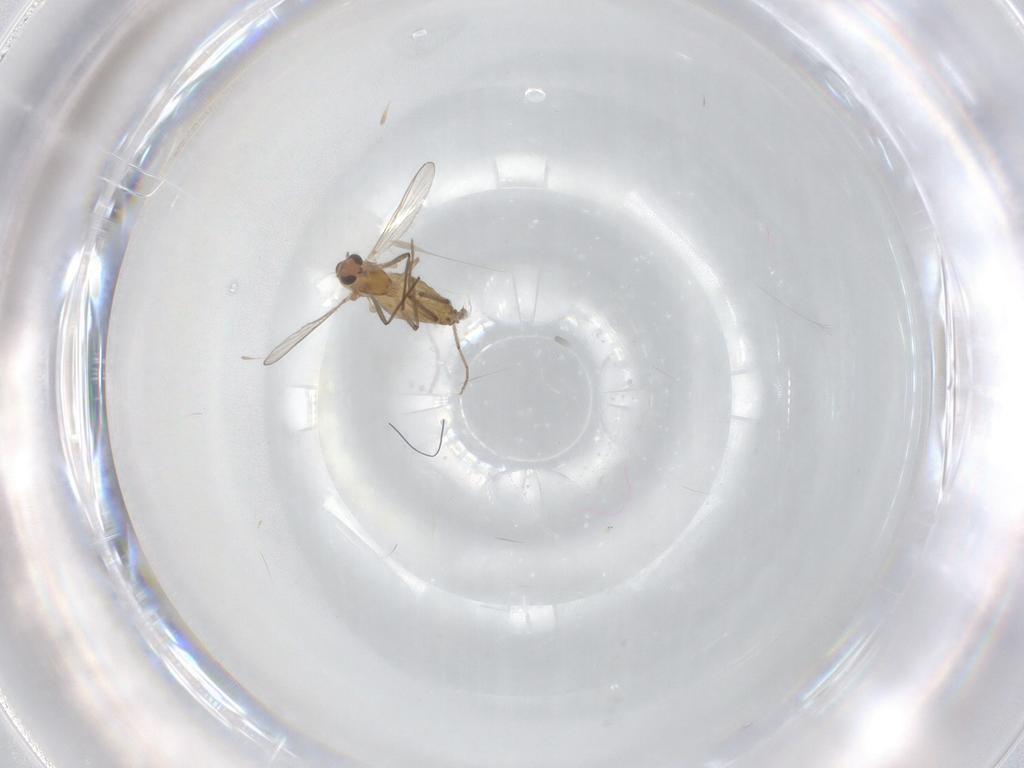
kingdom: Animalia
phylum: Arthropoda
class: Insecta
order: Diptera
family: Chironomidae
